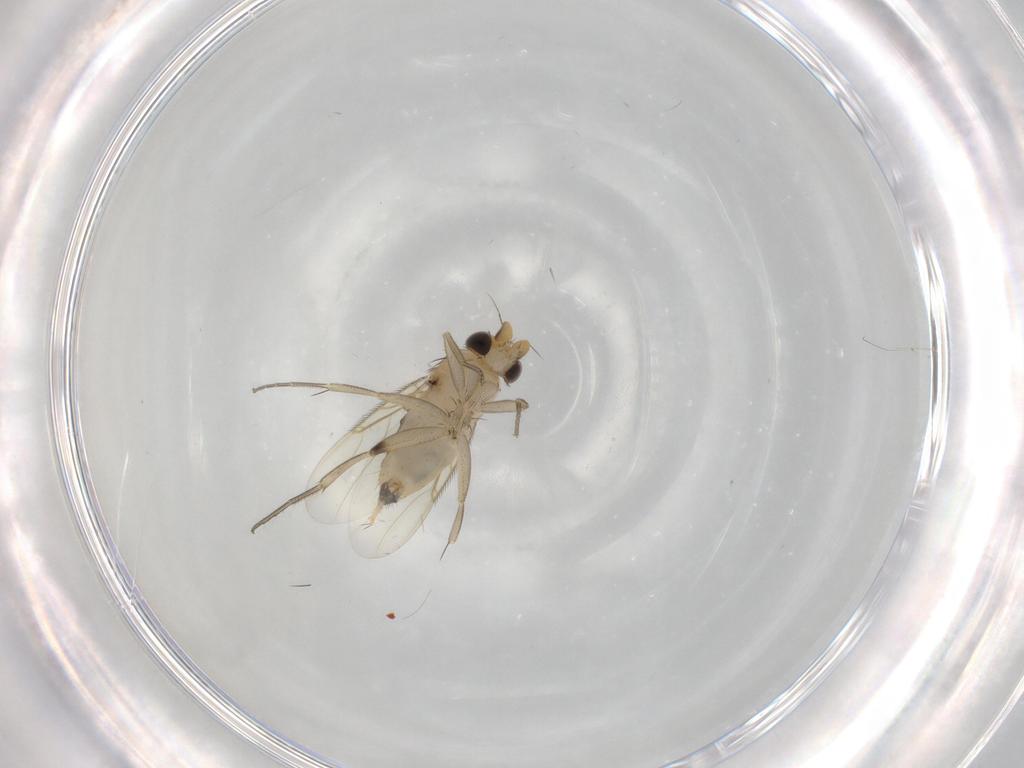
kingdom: Animalia
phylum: Arthropoda
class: Insecta
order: Diptera
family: Phoridae
